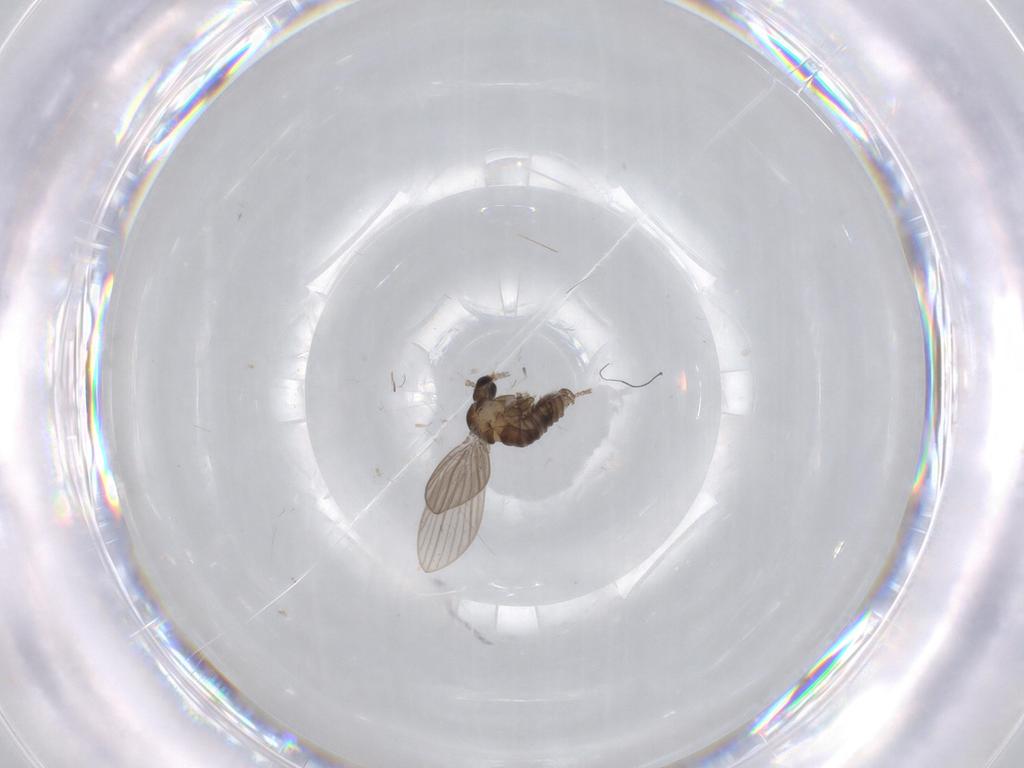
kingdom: Animalia
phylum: Arthropoda
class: Insecta
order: Diptera
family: Psychodidae
